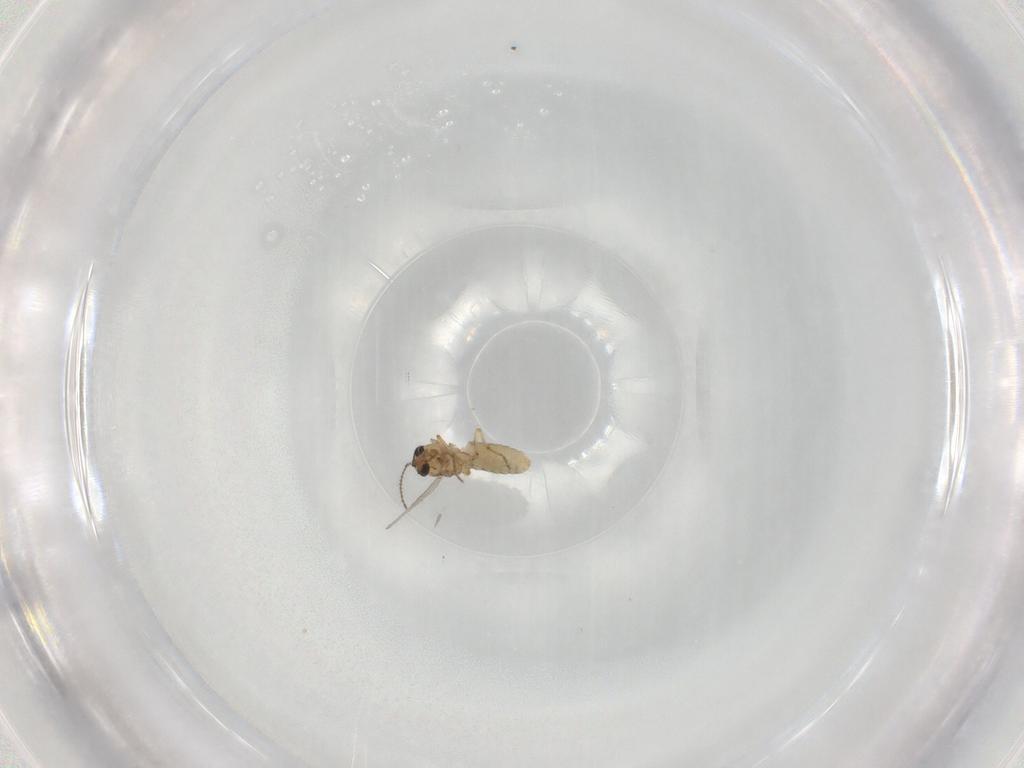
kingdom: Animalia
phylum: Arthropoda
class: Insecta
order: Diptera
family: Ceratopogonidae
